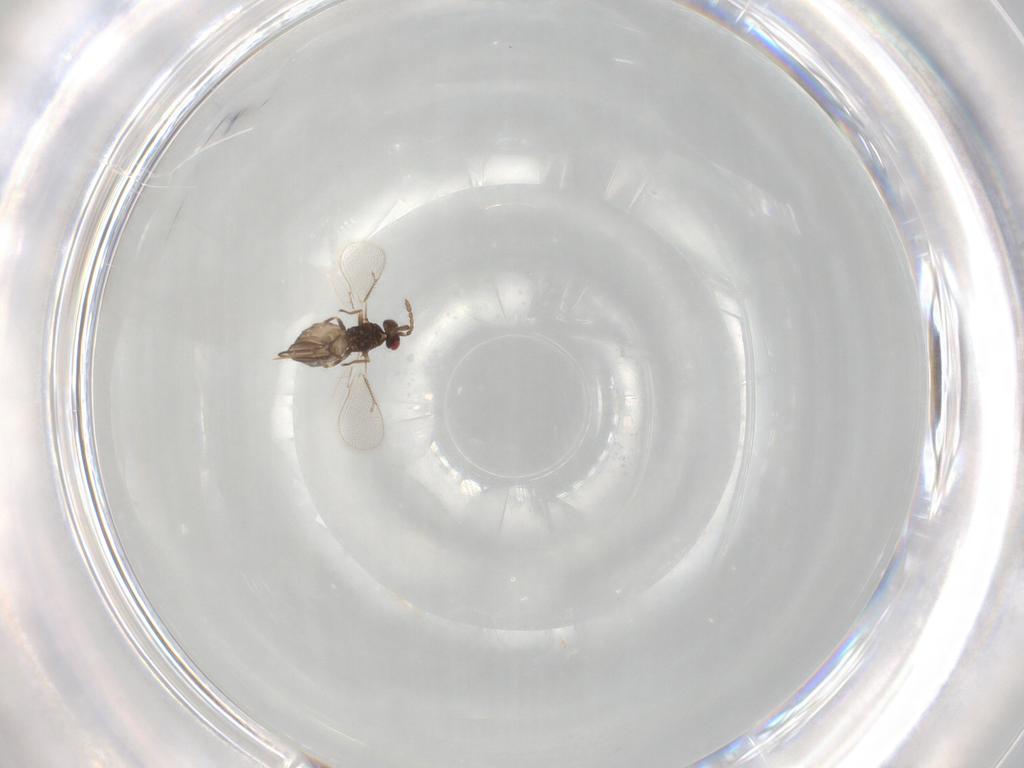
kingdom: Animalia
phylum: Arthropoda
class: Insecta
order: Hymenoptera
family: Eulophidae
